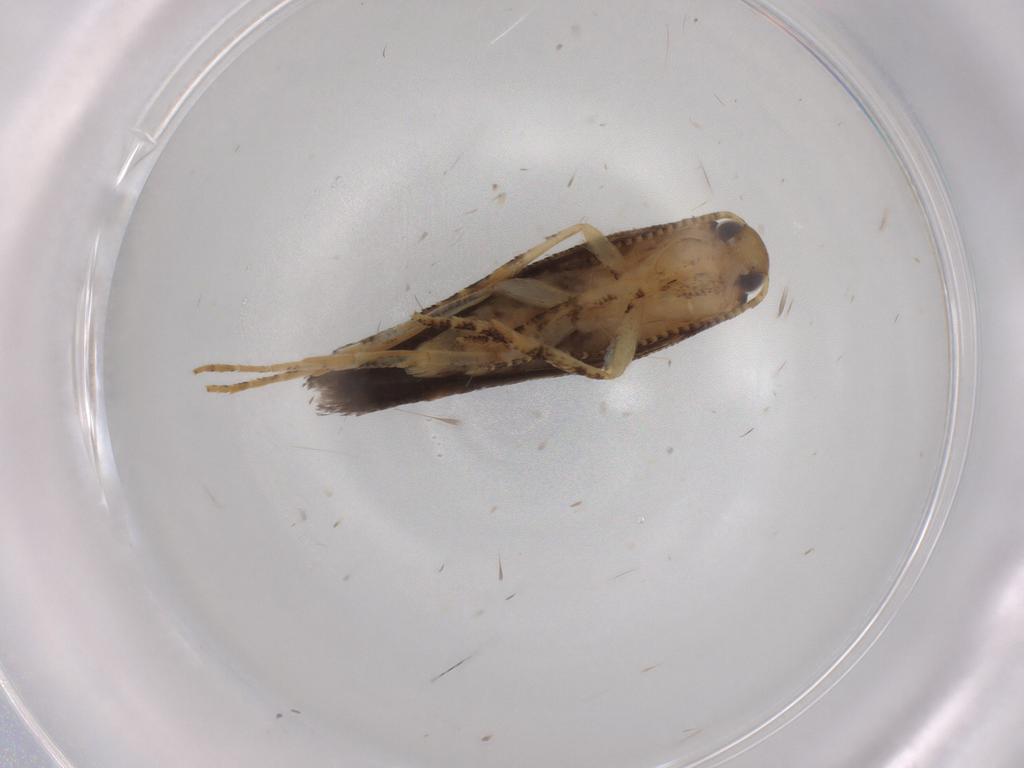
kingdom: Animalia
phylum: Arthropoda
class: Insecta
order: Lepidoptera
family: Gelechiidae
